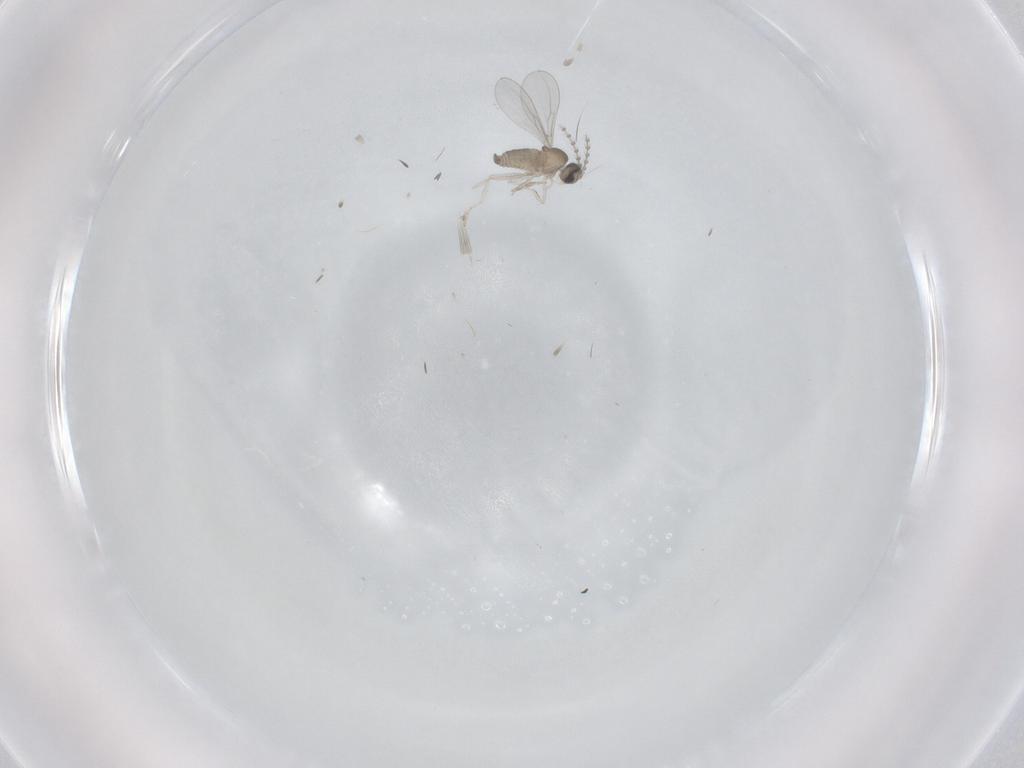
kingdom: Animalia
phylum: Arthropoda
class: Insecta
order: Diptera
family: Cecidomyiidae
